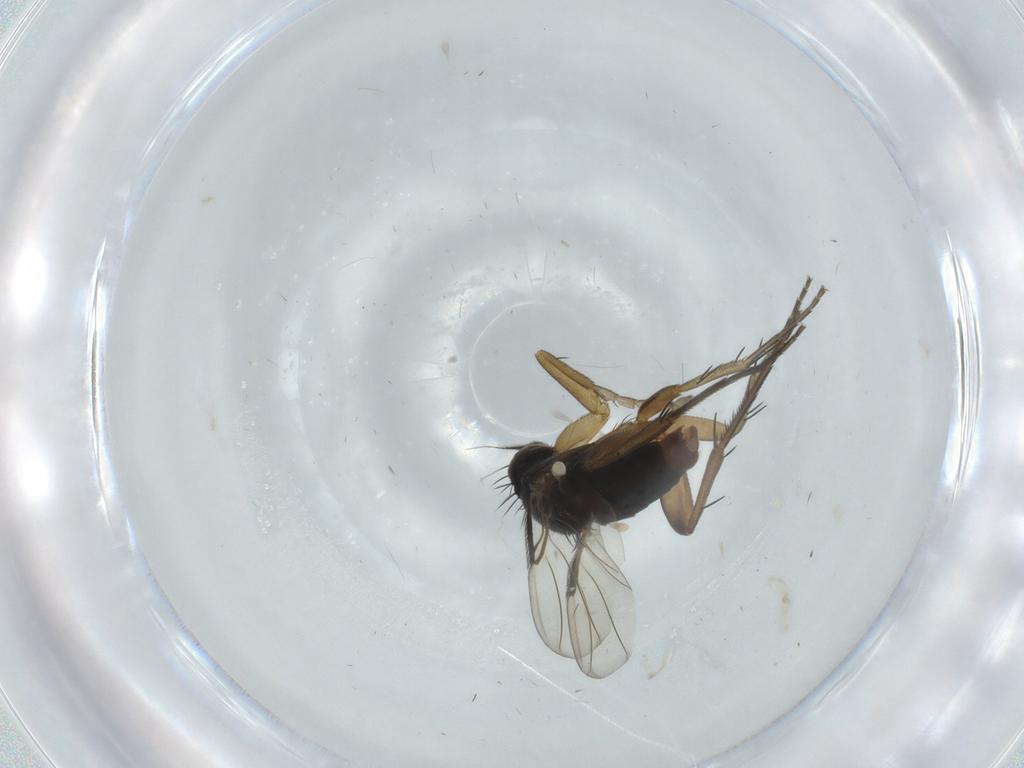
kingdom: Animalia
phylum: Arthropoda
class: Insecta
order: Diptera
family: Phoridae
